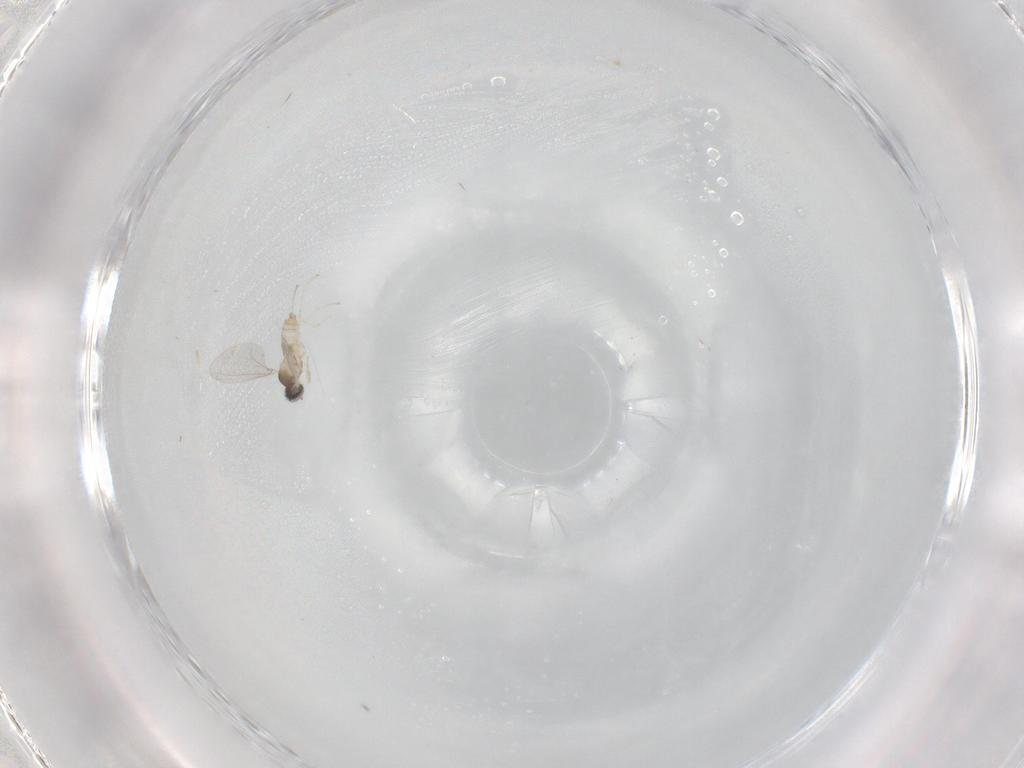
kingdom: Animalia
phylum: Arthropoda
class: Insecta
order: Diptera
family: Cecidomyiidae
